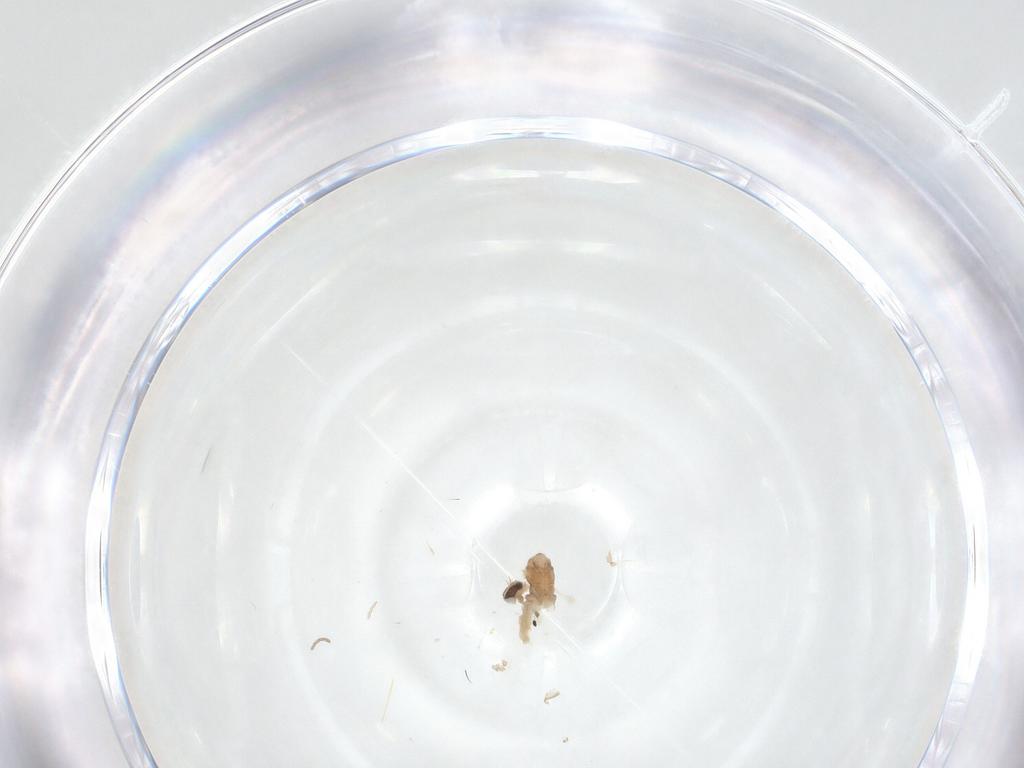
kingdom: Animalia
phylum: Arthropoda
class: Insecta
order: Diptera
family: Cecidomyiidae
